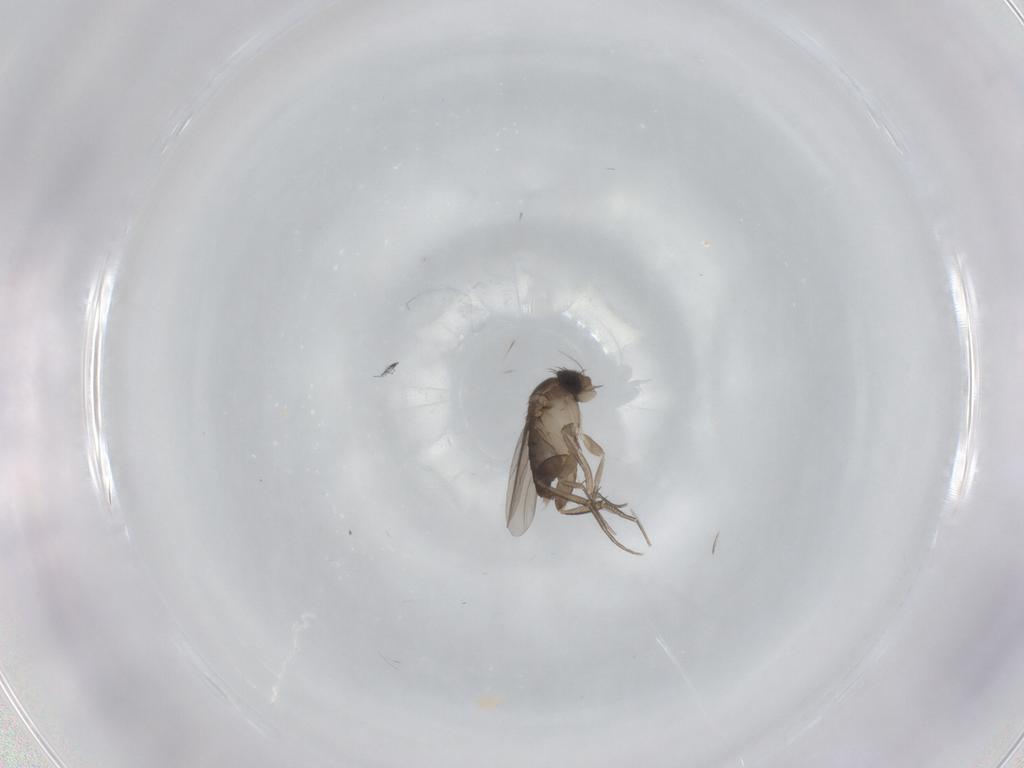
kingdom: Animalia
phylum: Arthropoda
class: Insecta
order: Diptera
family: Phoridae
